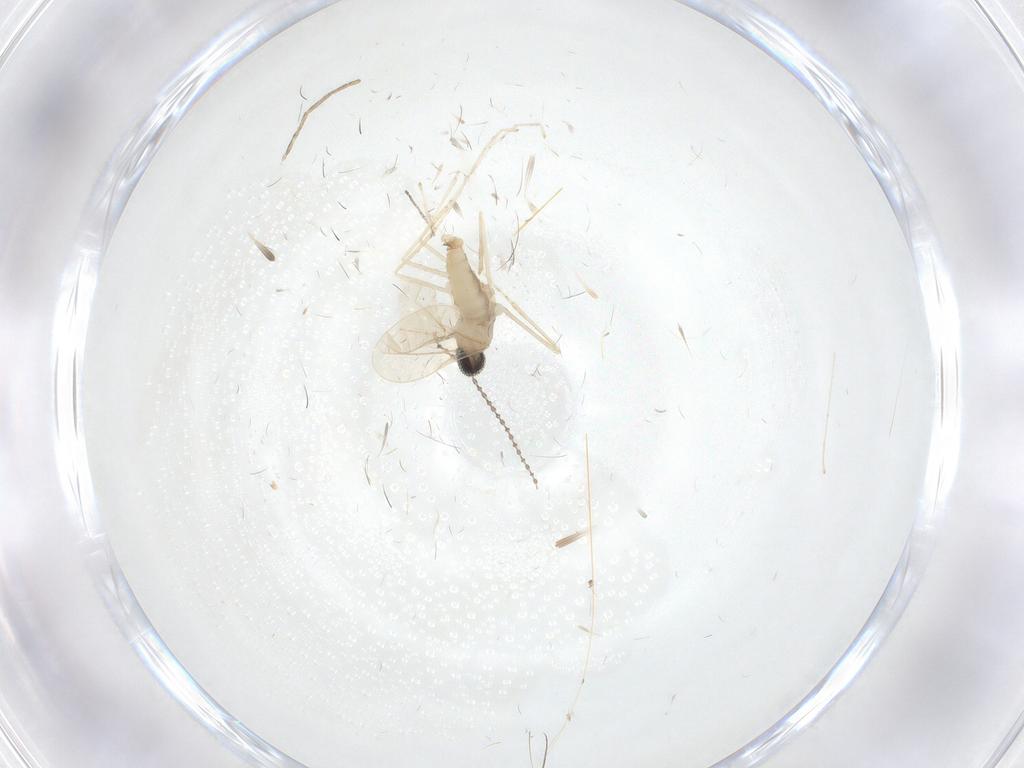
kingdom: Animalia
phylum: Arthropoda
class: Insecta
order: Diptera
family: Cecidomyiidae
